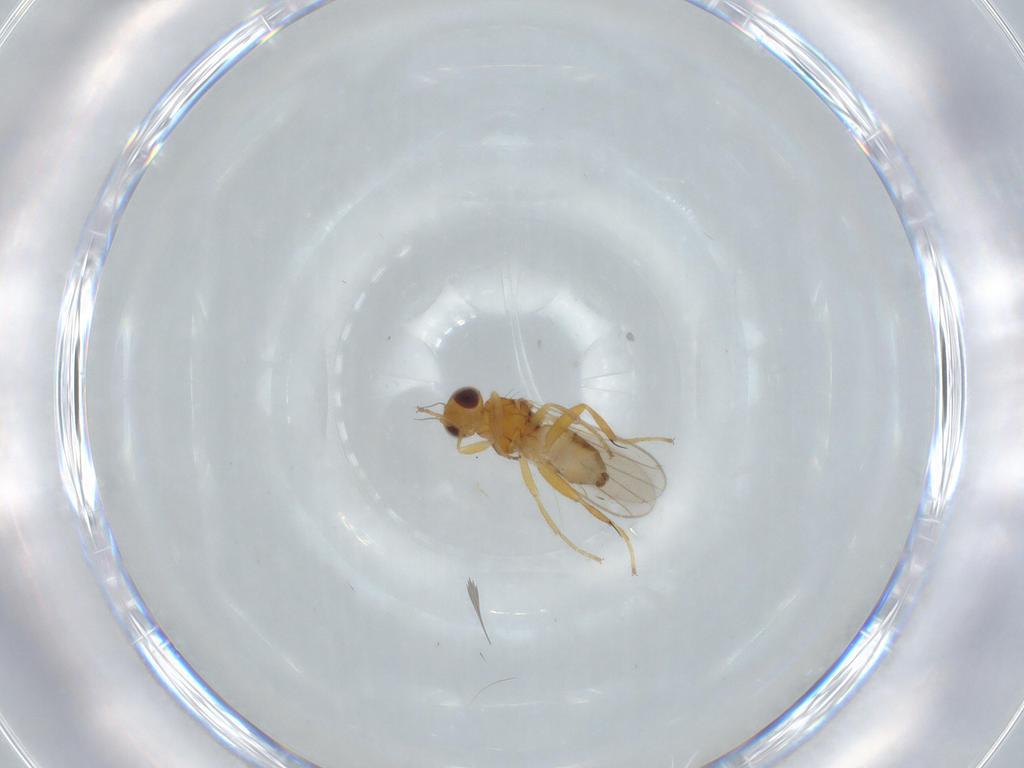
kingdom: Animalia
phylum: Arthropoda
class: Insecta
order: Diptera
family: Chloropidae
